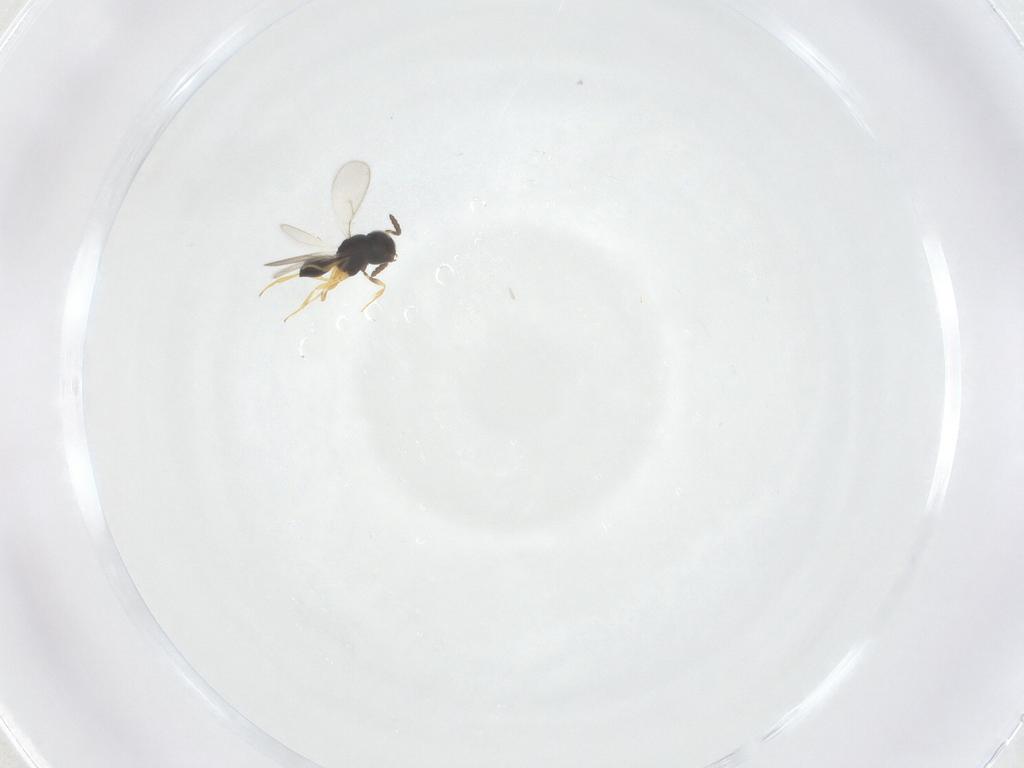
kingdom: Animalia
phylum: Arthropoda
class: Insecta
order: Hymenoptera
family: Scelionidae
